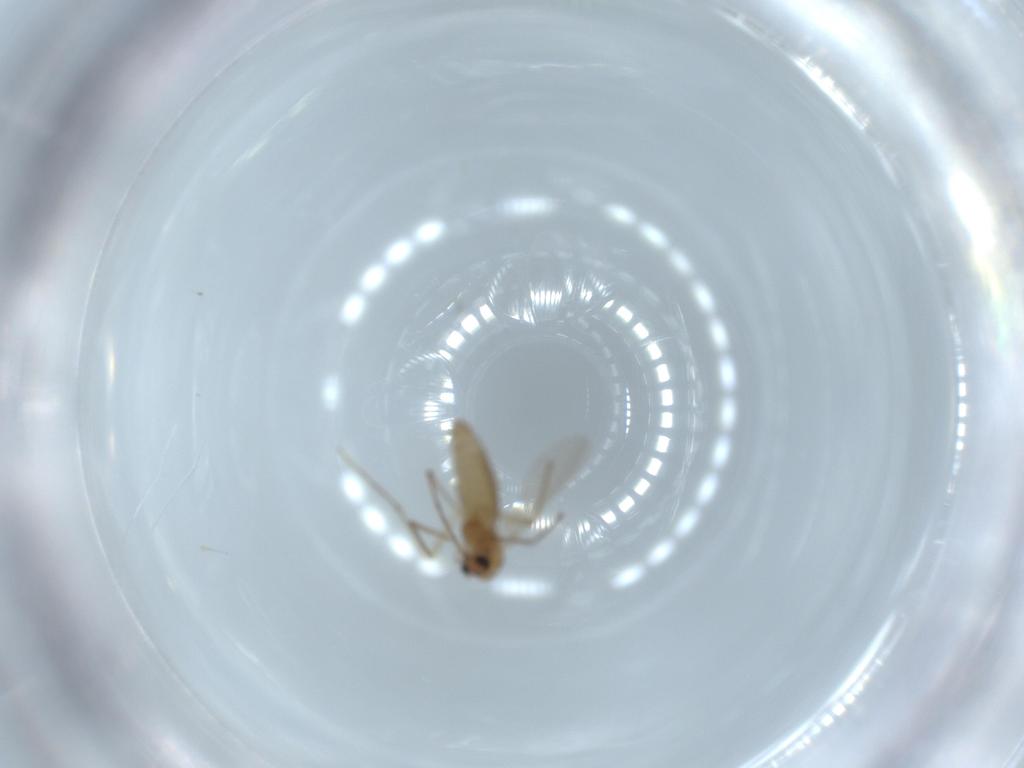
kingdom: Animalia
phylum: Arthropoda
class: Insecta
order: Diptera
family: Chironomidae
